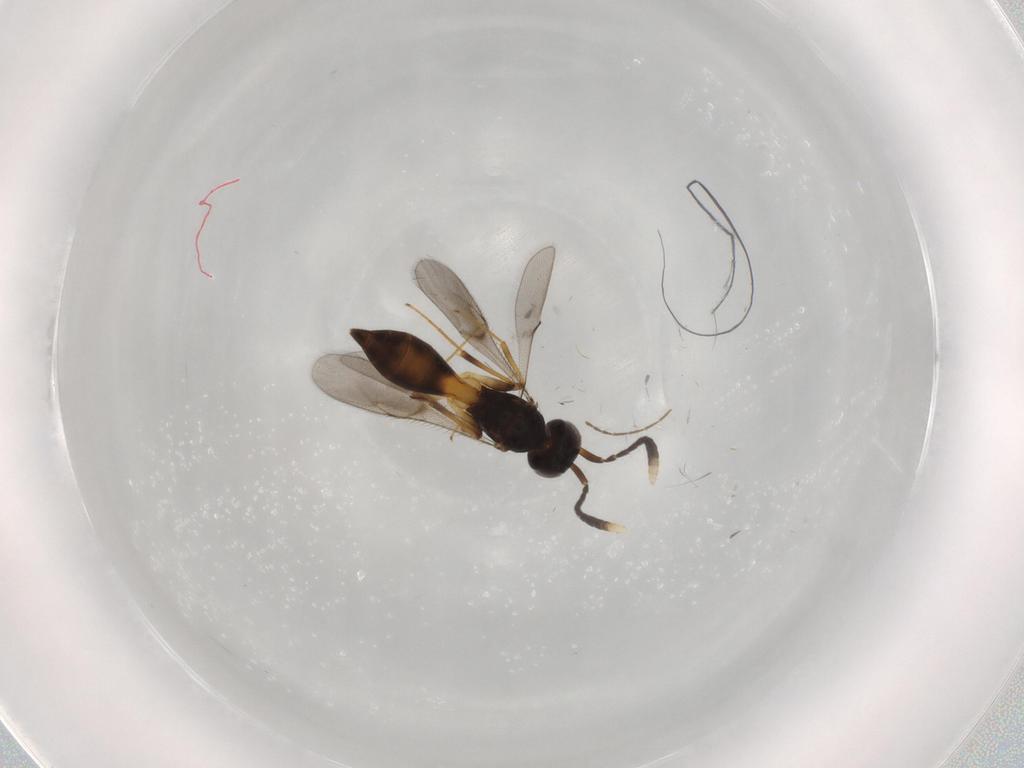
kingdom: Animalia
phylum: Arthropoda
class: Insecta
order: Hymenoptera
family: Scelionidae
